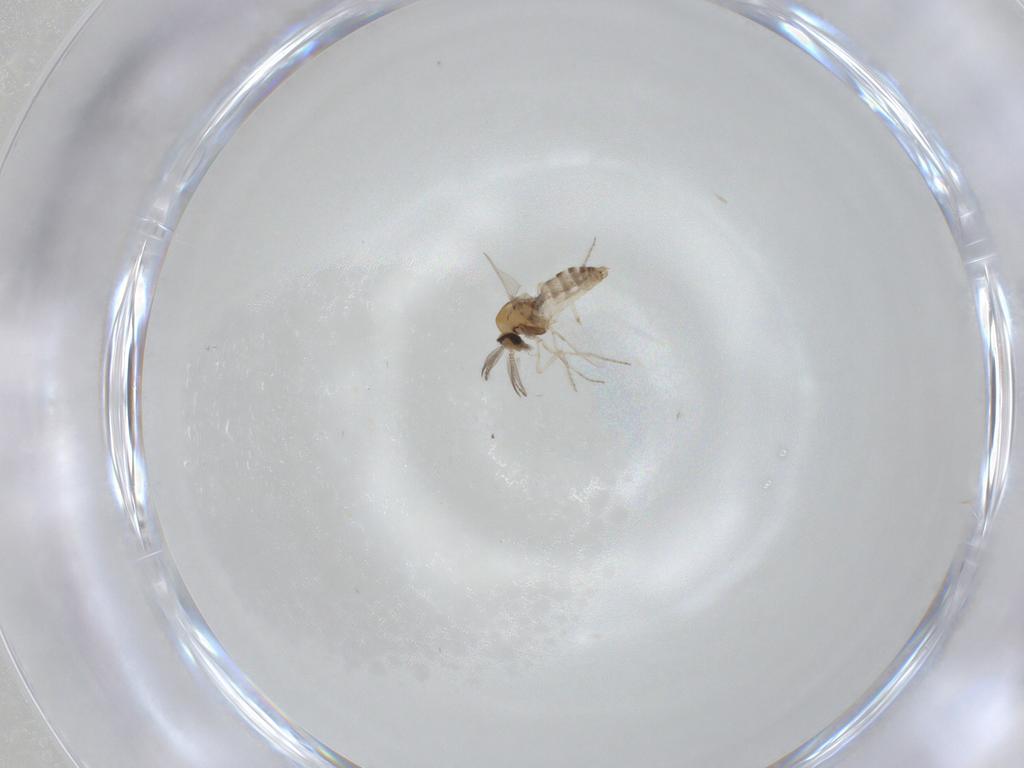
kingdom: Animalia
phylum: Arthropoda
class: Insecta
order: Diptera
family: Ceratopogonidae
